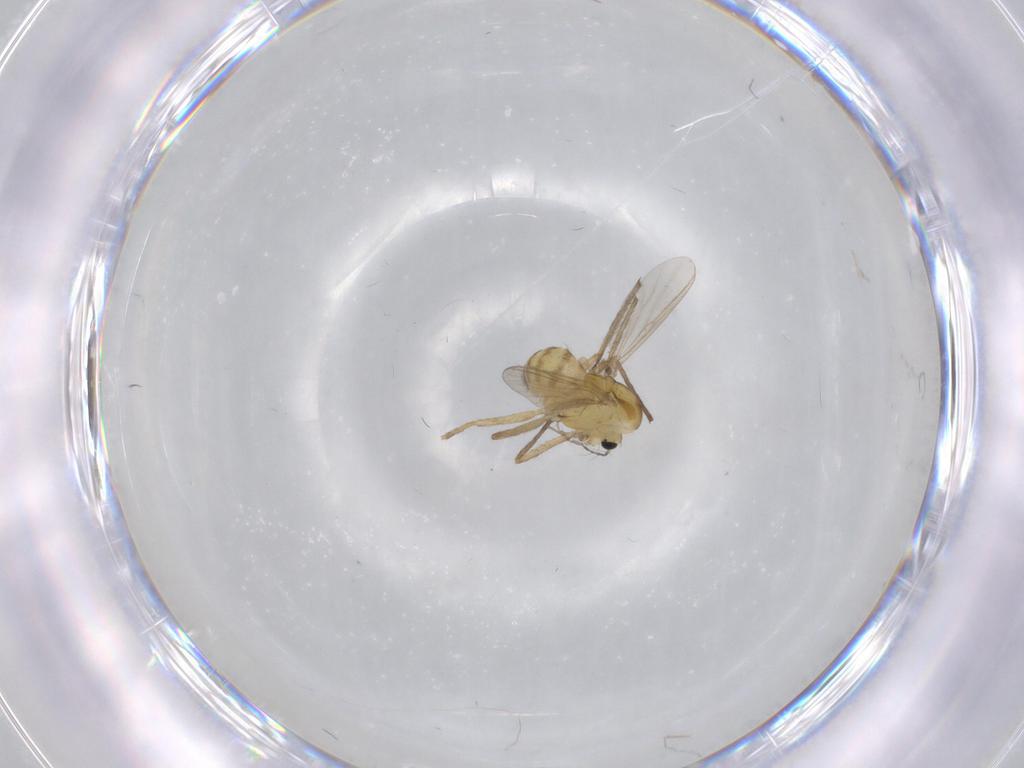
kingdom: Animalia
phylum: Arthropoda
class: Insecta
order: Diptera
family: Chironomidae
